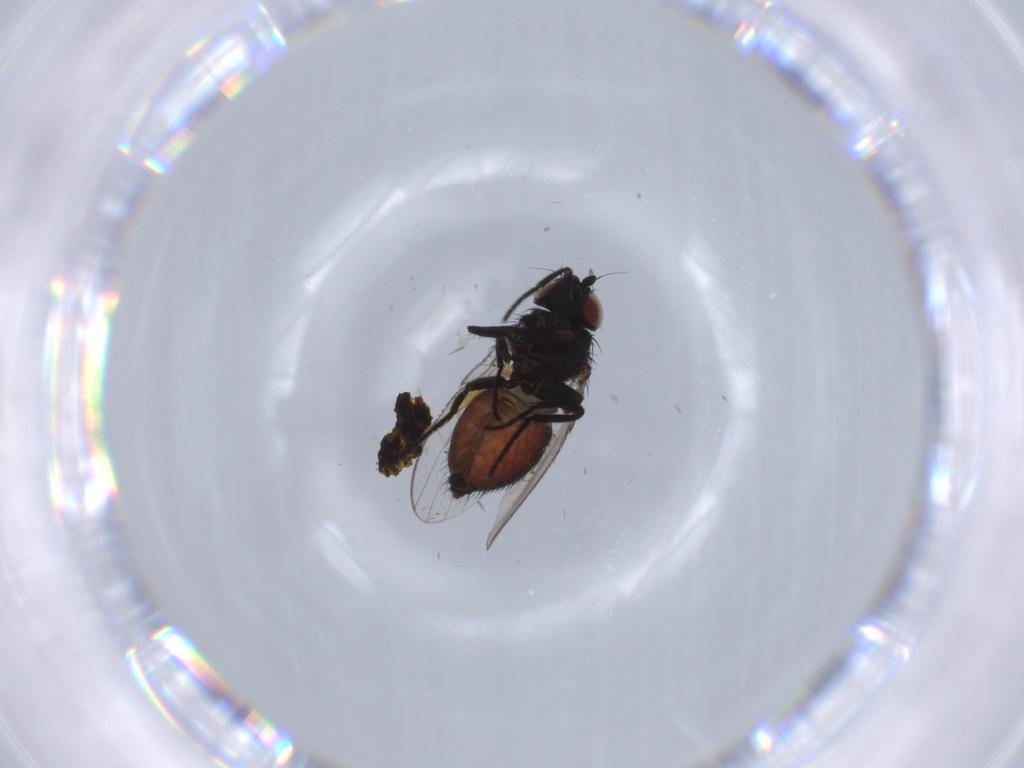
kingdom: Animalia
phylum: Arthropoda
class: Insecta
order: Diptera
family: Milichiidae
